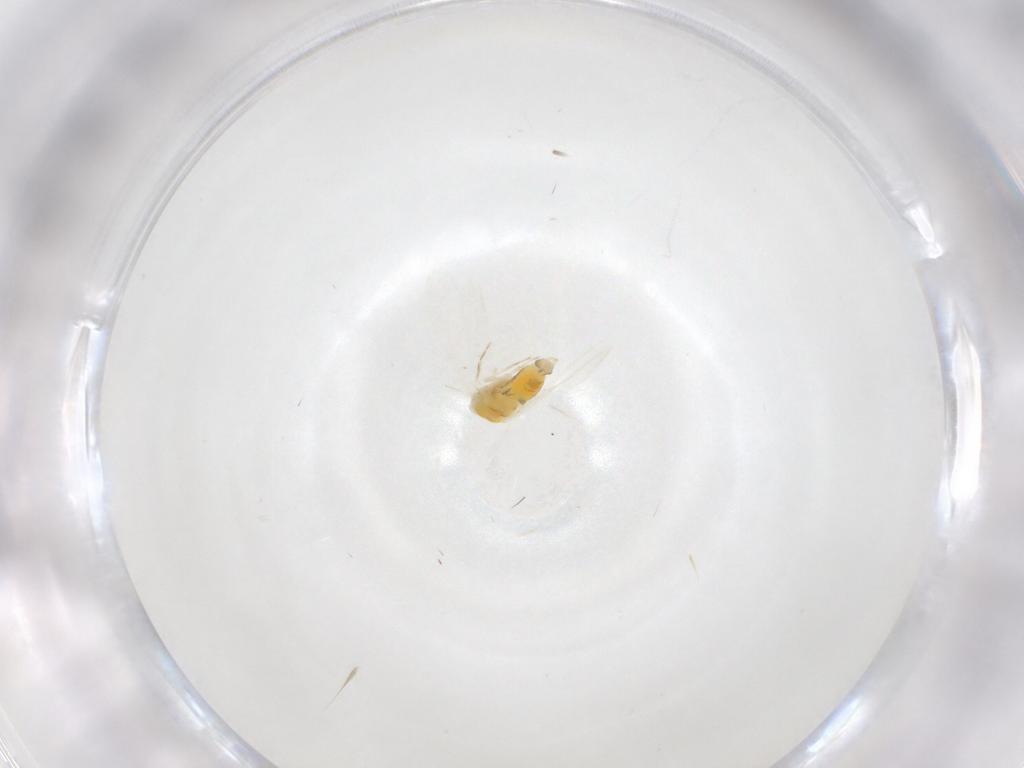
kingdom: Animalia
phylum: Arthropoda
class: Insecta
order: Hemiptera
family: Aleyrodidae
